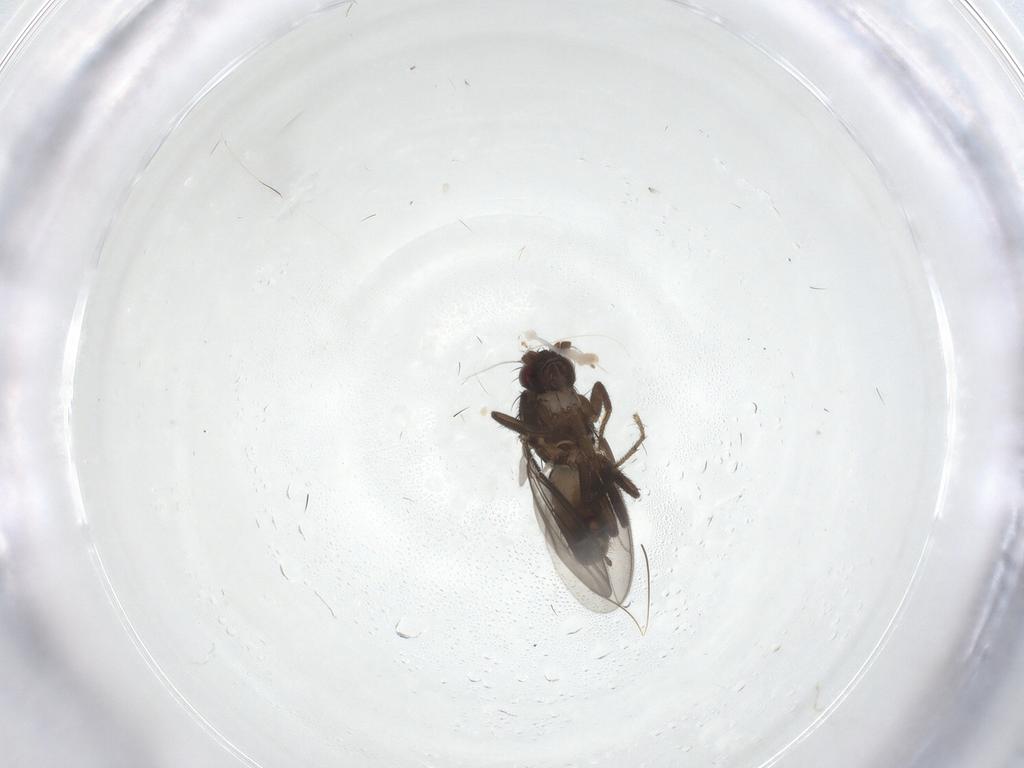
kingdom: Animalia
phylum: Arthropoda
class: Insecta
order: Diptera
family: Sphaeroceridae
